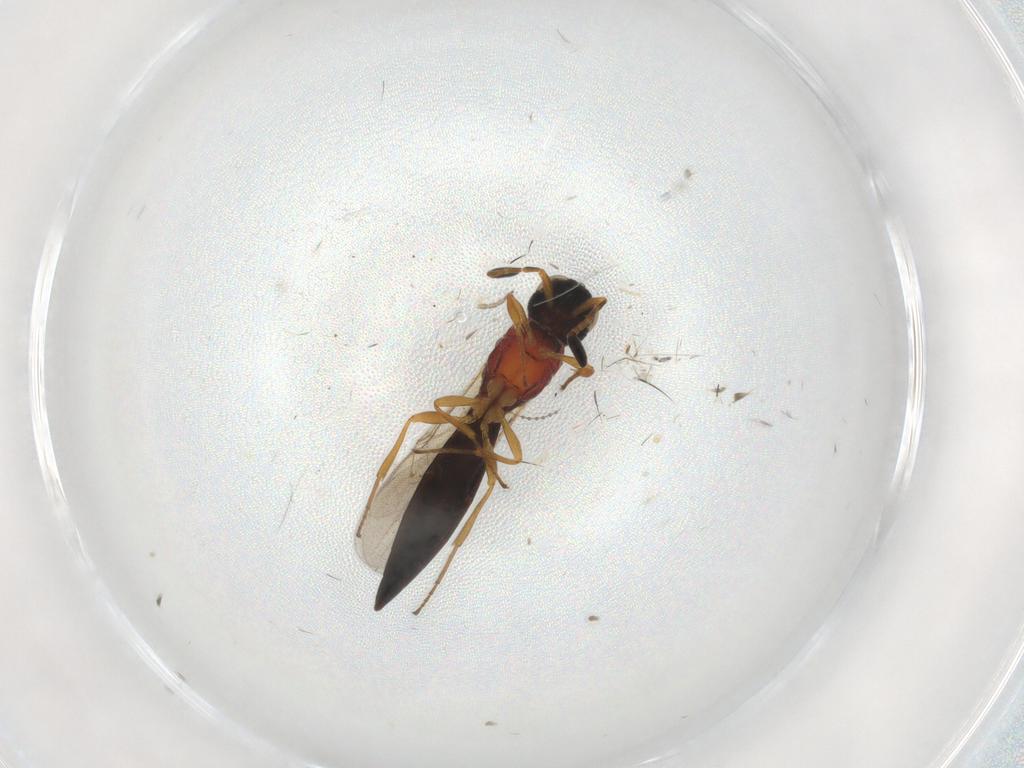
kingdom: Animalia
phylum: Arthropoda
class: Insecta
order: Hymenoptera
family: Scelionidae
